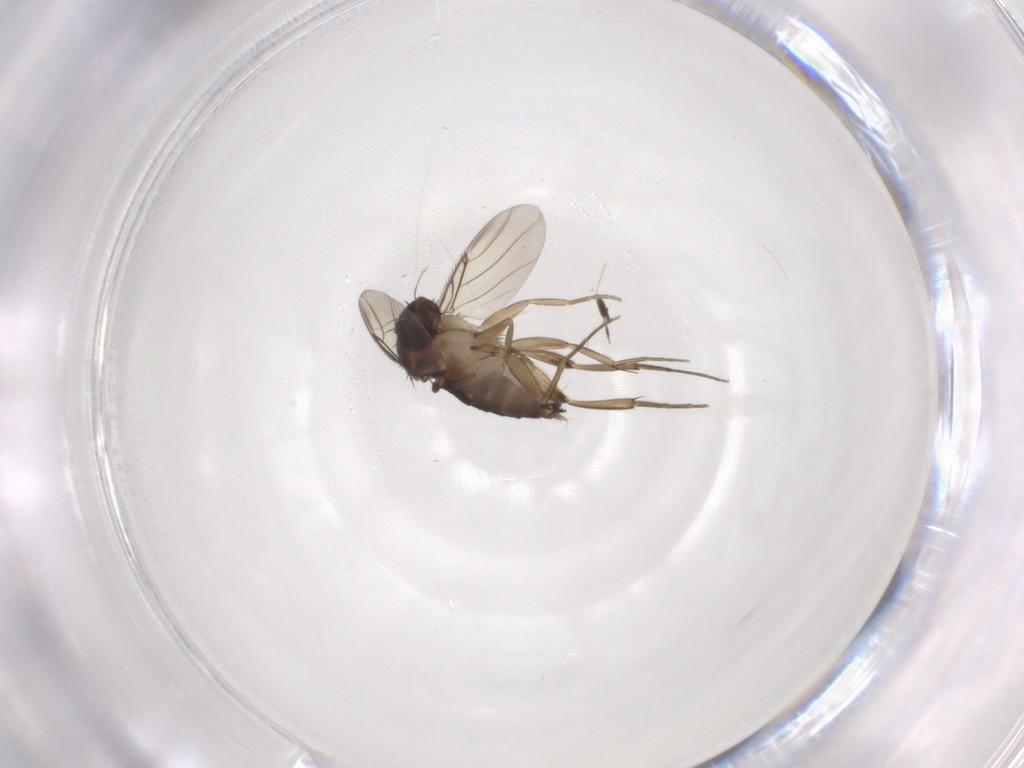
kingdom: Animalia
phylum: Arthropoda
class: Insecta
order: Diptera
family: Phoridae
